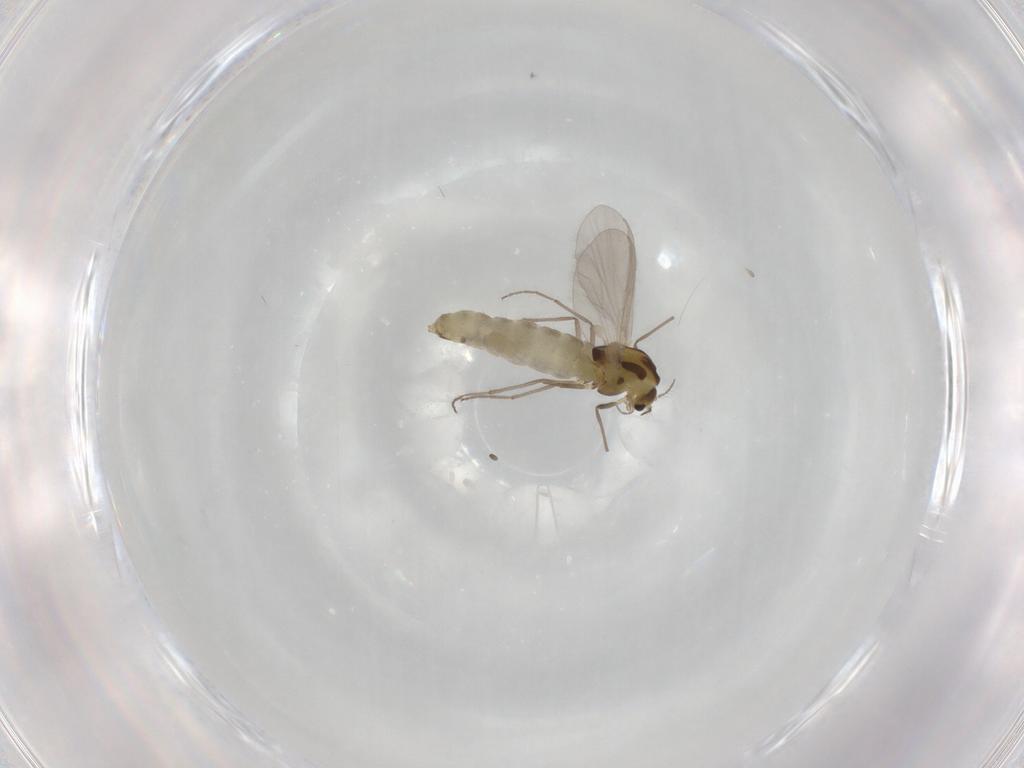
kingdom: Animalia
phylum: Arthropoda
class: Insecta
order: Diptera
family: Chironomidae
